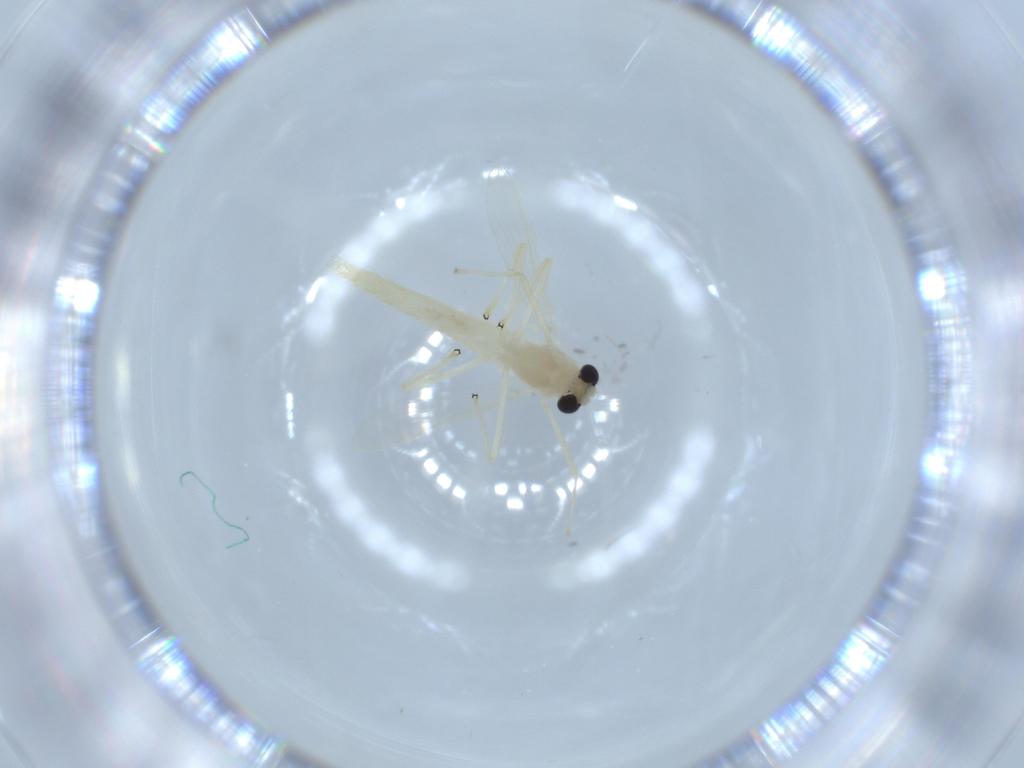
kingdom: Animalia
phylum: Arthropoda
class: Insecta
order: Diptera
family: Chironomidae
